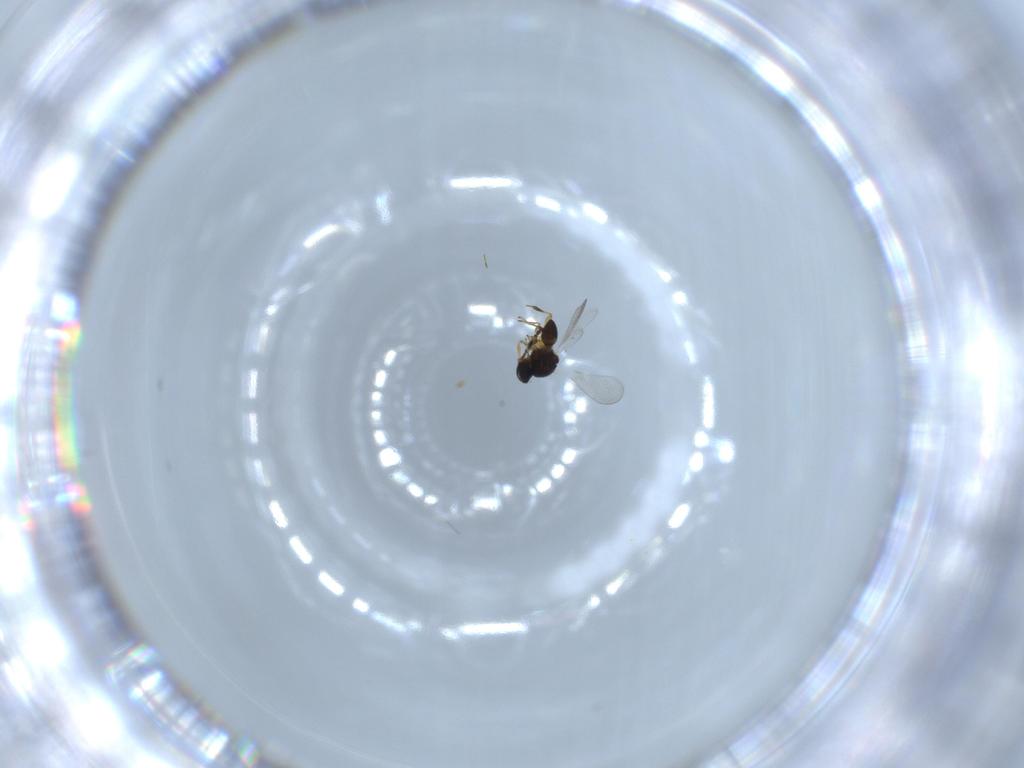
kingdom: Animalia
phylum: Arthropoda
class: Insecta
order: Hymenoptera
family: Platygastridae
